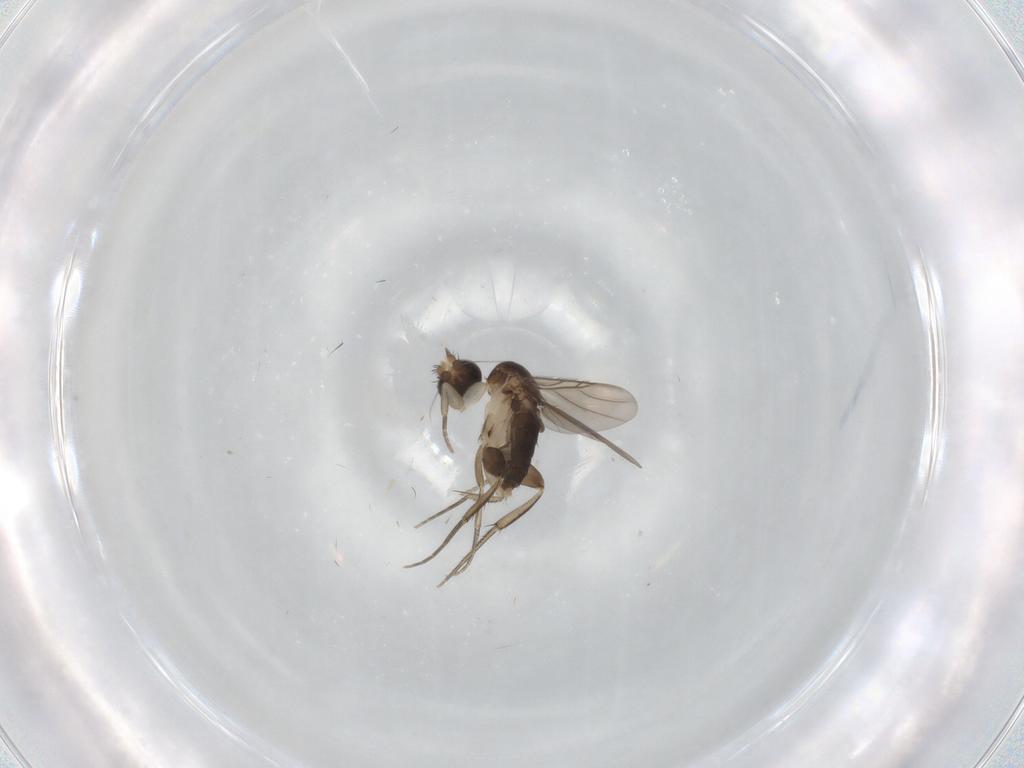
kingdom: Animalia
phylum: Arthropoda
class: Insecta
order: Diptera
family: Phoridae
